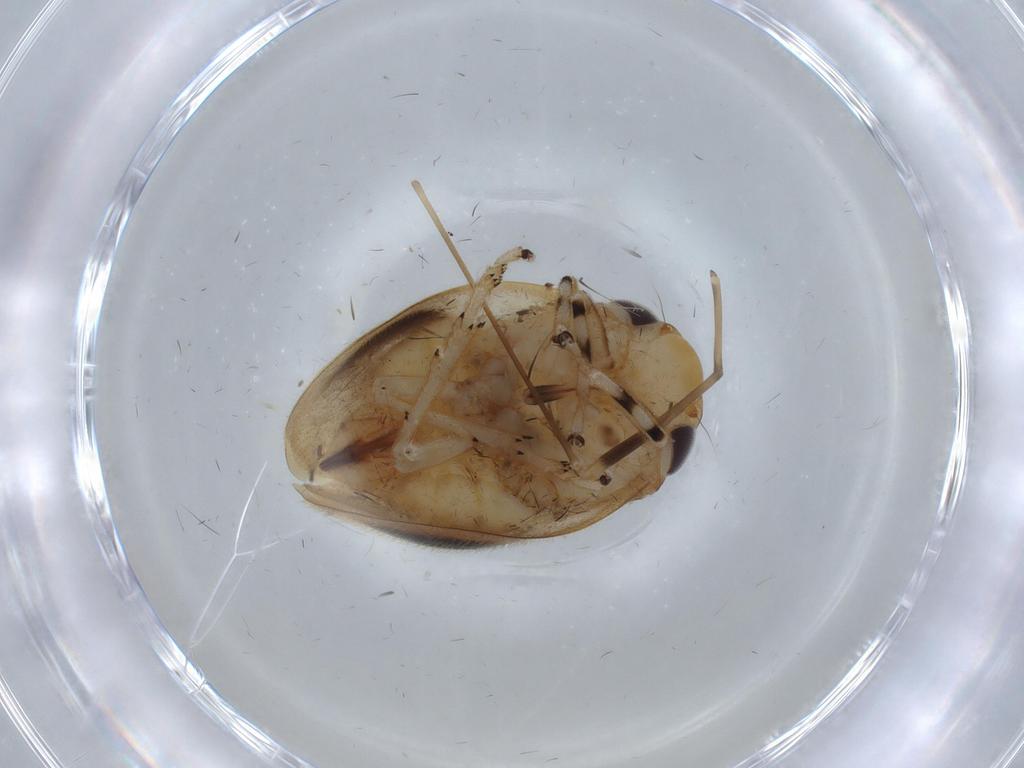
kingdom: Animalia
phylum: Arthropoda
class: Insecta
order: Hemiptera
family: Clastopteridae
